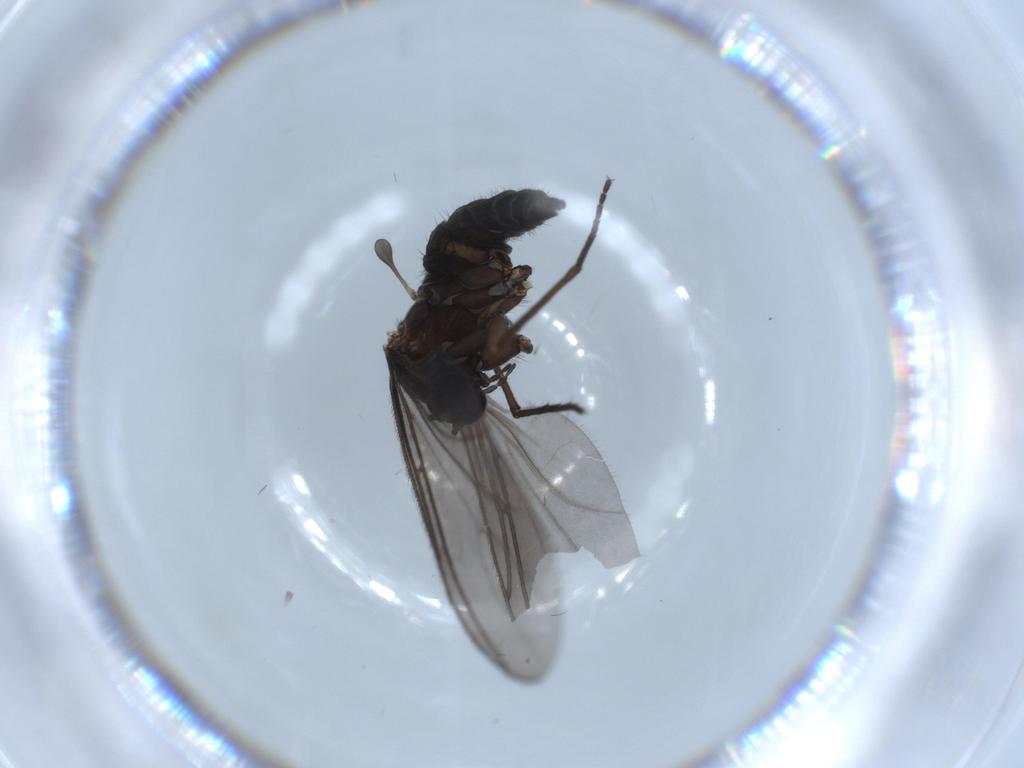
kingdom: Animalia
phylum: Arthropoda
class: Insecta
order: Diptera
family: Sciaridae
